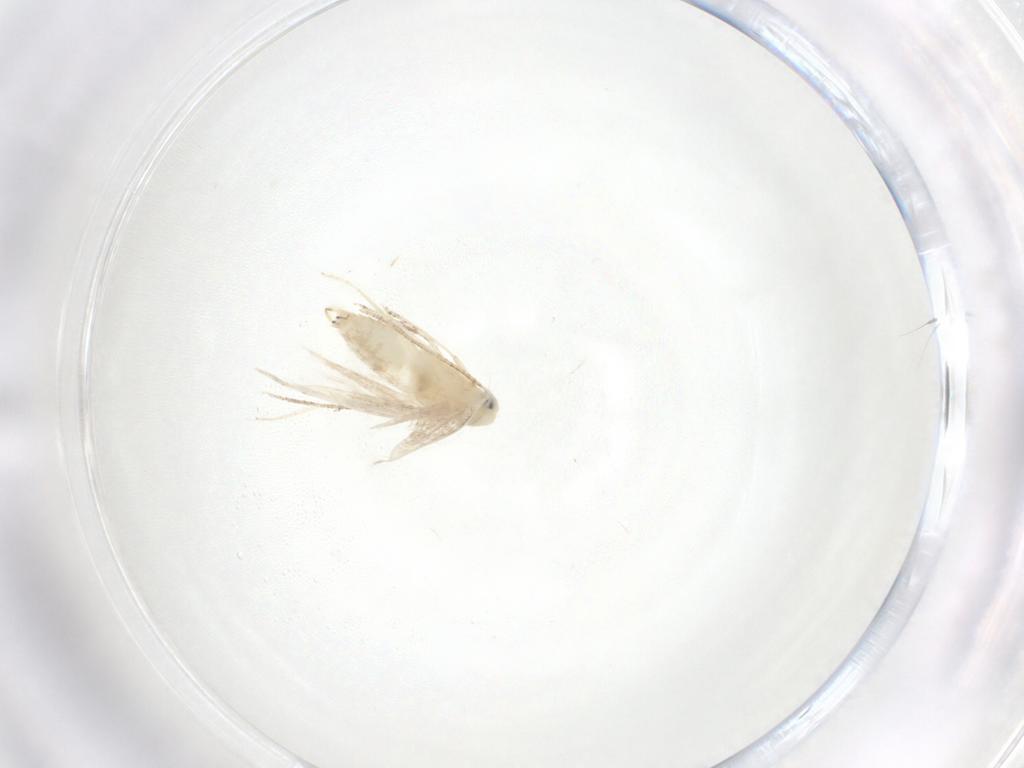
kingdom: Animalia
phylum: Arthropoda
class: Insecta
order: Lepidoptera
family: Lyonetiidae
